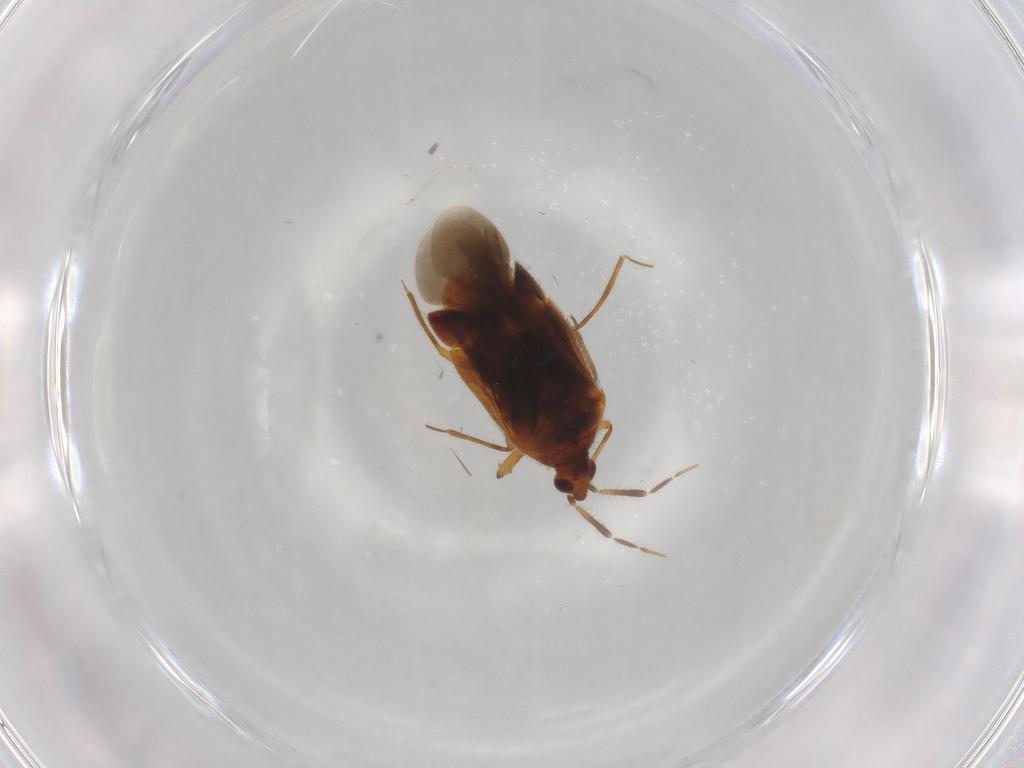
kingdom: Animalia
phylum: Arthropoda
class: Insecta
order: Hemiptera
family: Anthocoridae
